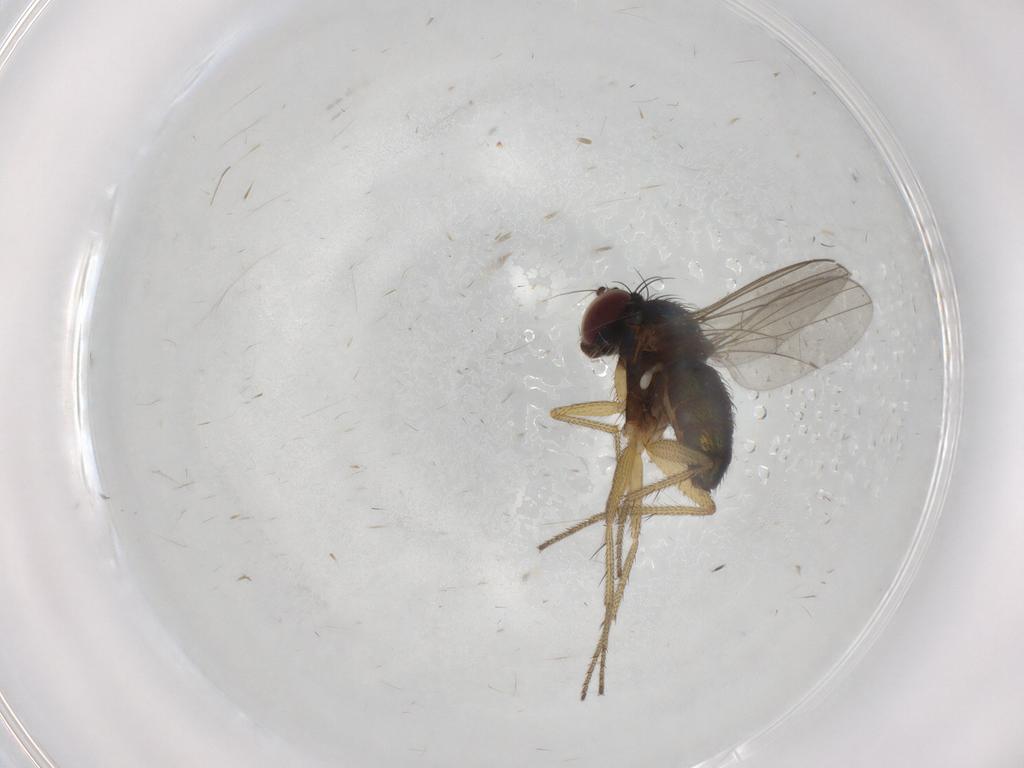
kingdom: Animalia
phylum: Arthropoda
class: Insecta
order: Diptera
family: Dolichopodidae
